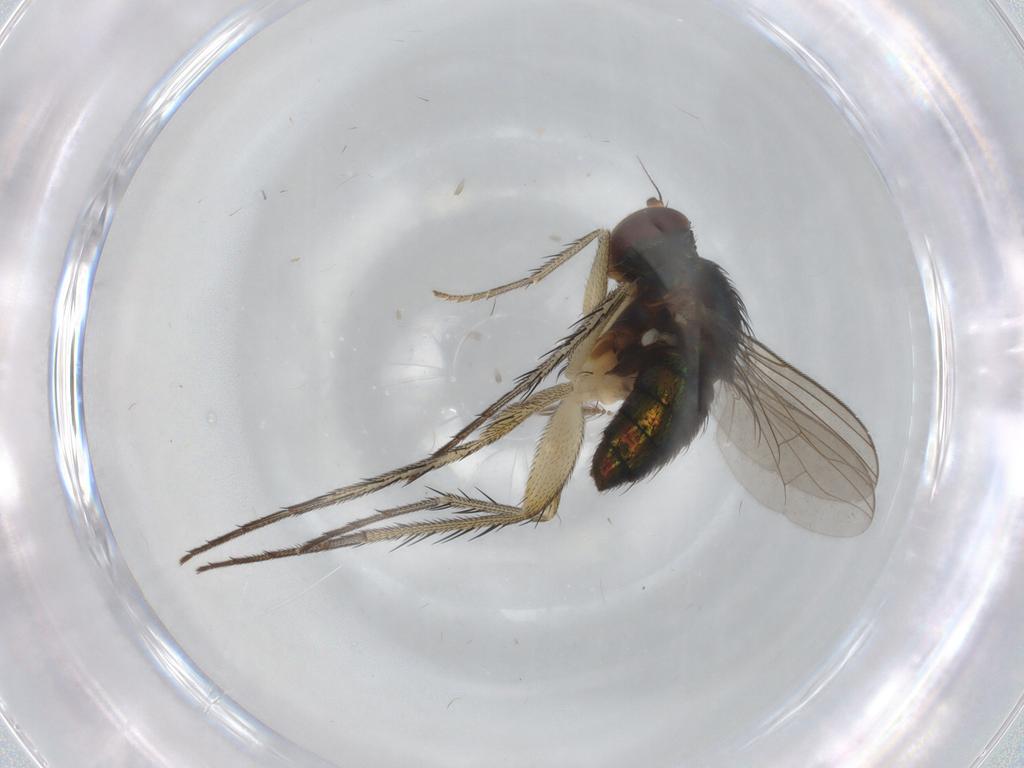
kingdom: Animalia
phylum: Arthropoda
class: Insecta
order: Diptera
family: Dolichopodidae
